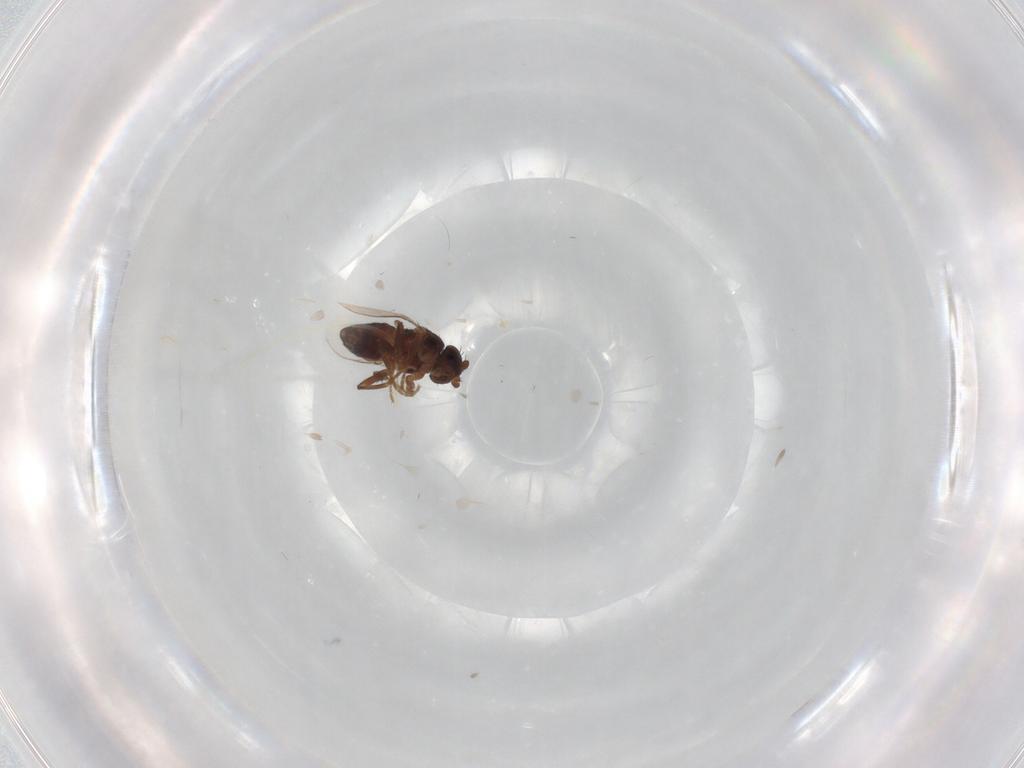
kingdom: Animalia
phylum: Arthropoda
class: Insecta
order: Diptera
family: Sphaeroceridae
